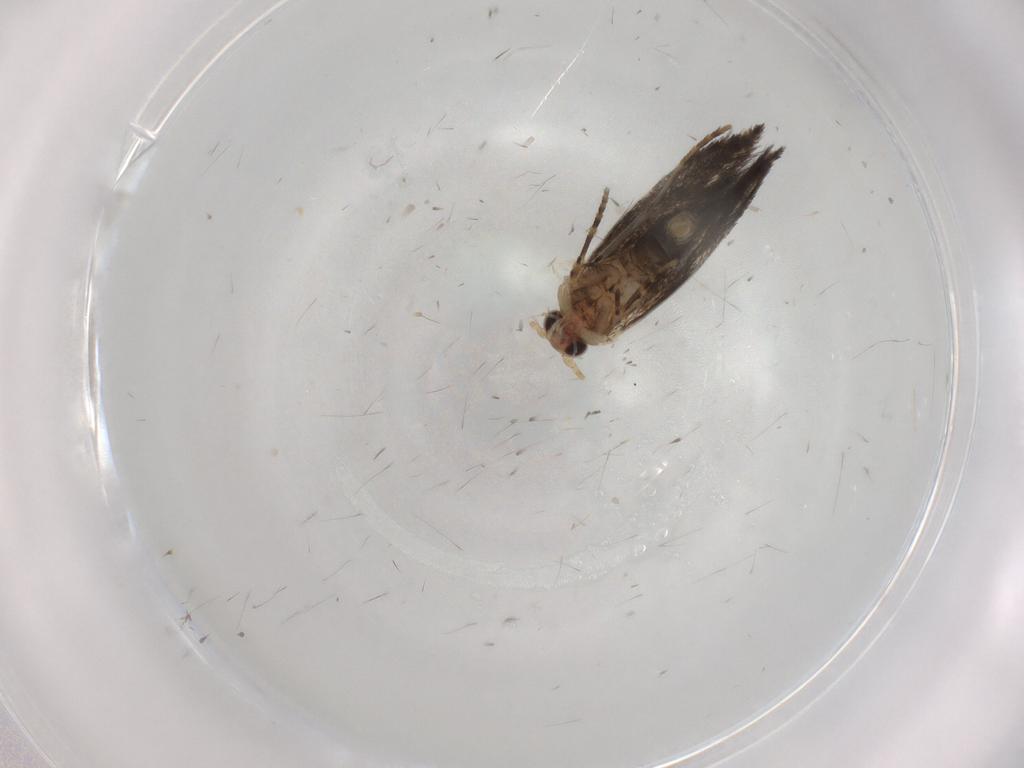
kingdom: Animalia
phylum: Arthropoda
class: Insecta
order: Lepidoptera
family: Tineidae
